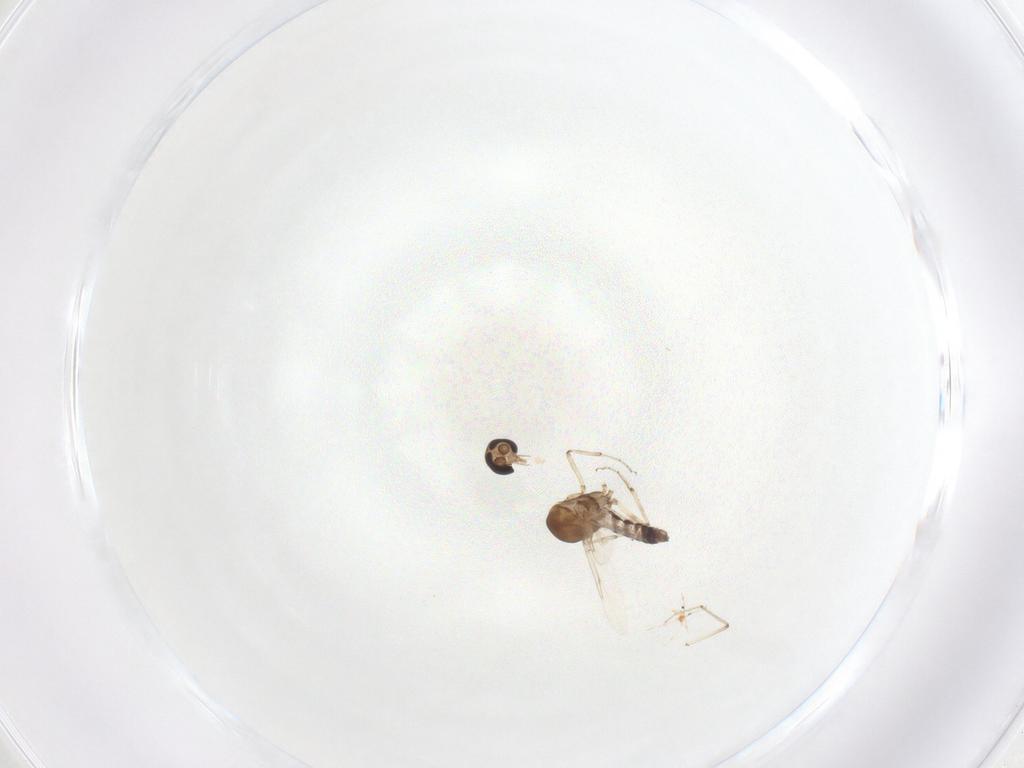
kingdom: Animalia
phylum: Arthropoda
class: Insecta
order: Diptera
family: Ceratopogonidae
